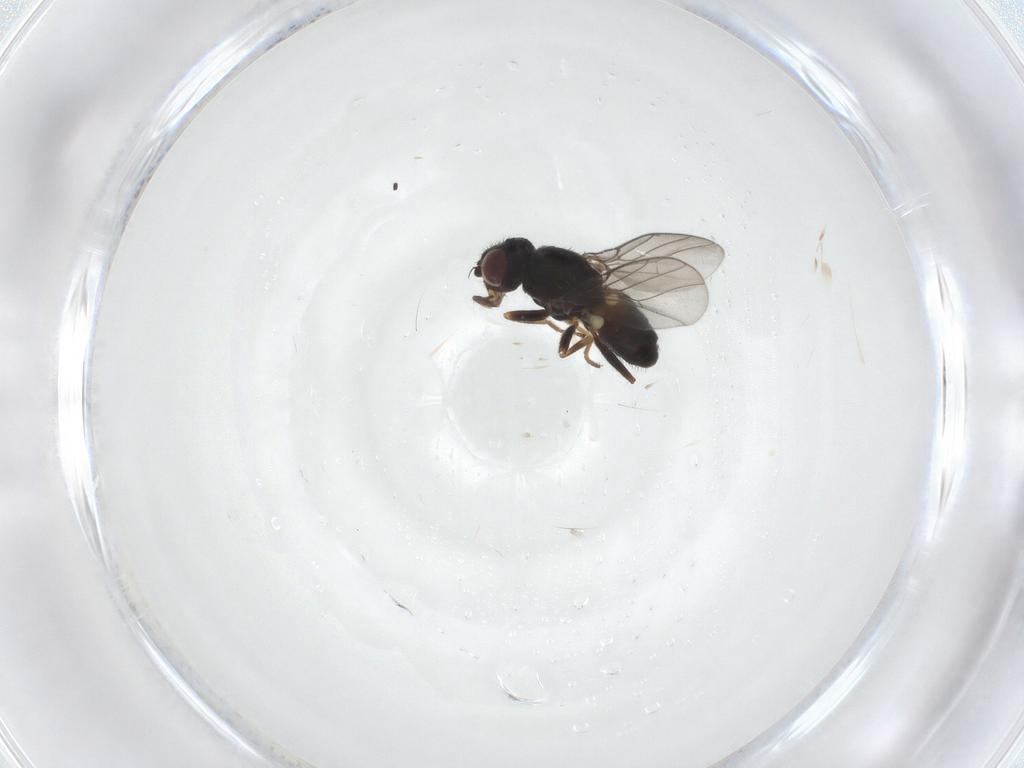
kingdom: Animalia
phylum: Arthropoda
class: Insecta
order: Diptera
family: Chloropidae
